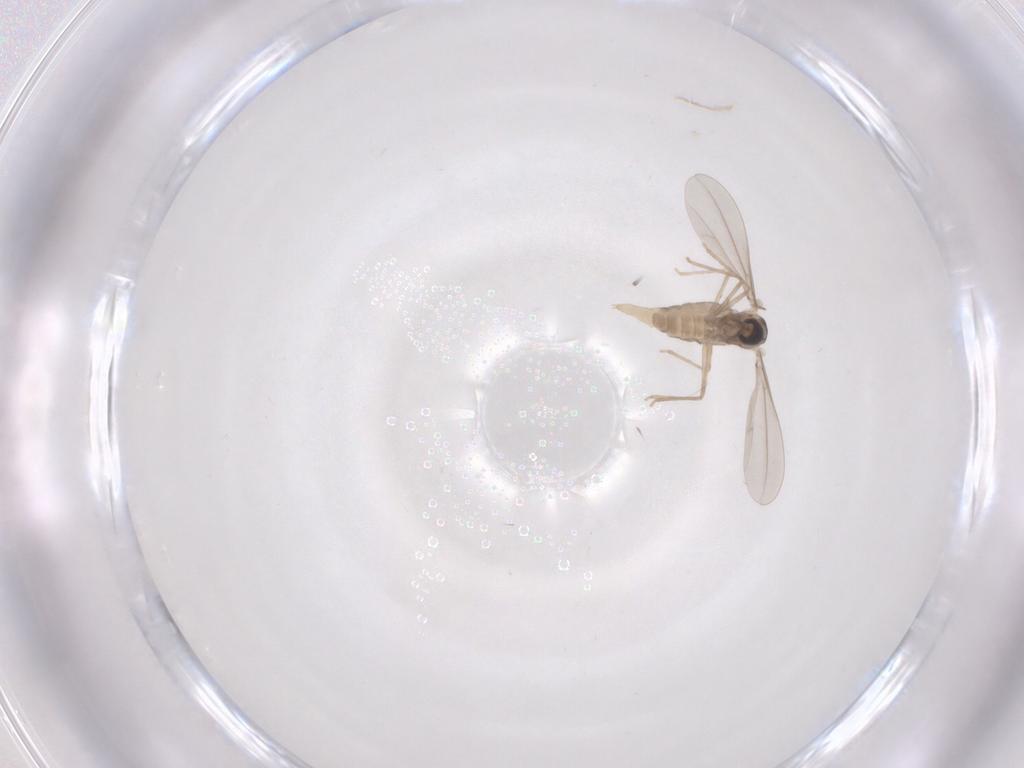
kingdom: Animalia
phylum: Arthropoda
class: Insecta
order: Diptera
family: Cecidomyiidae
